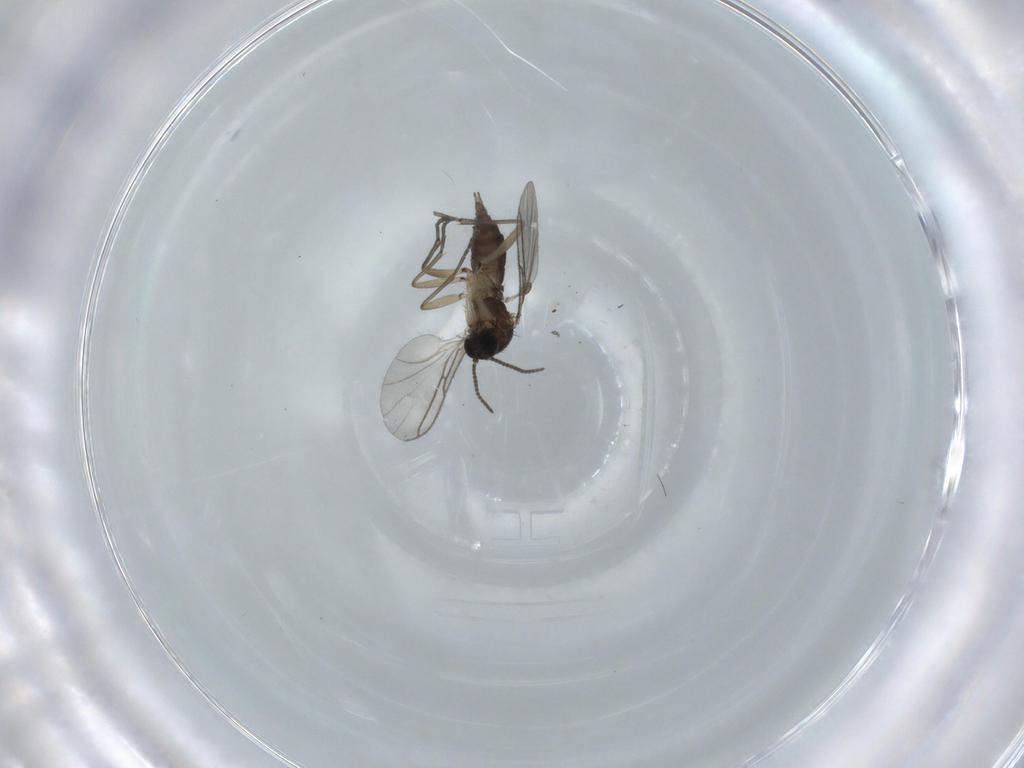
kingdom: Animalia
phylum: Arthropoda
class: Insecta
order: Diptera
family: Sciaridae
